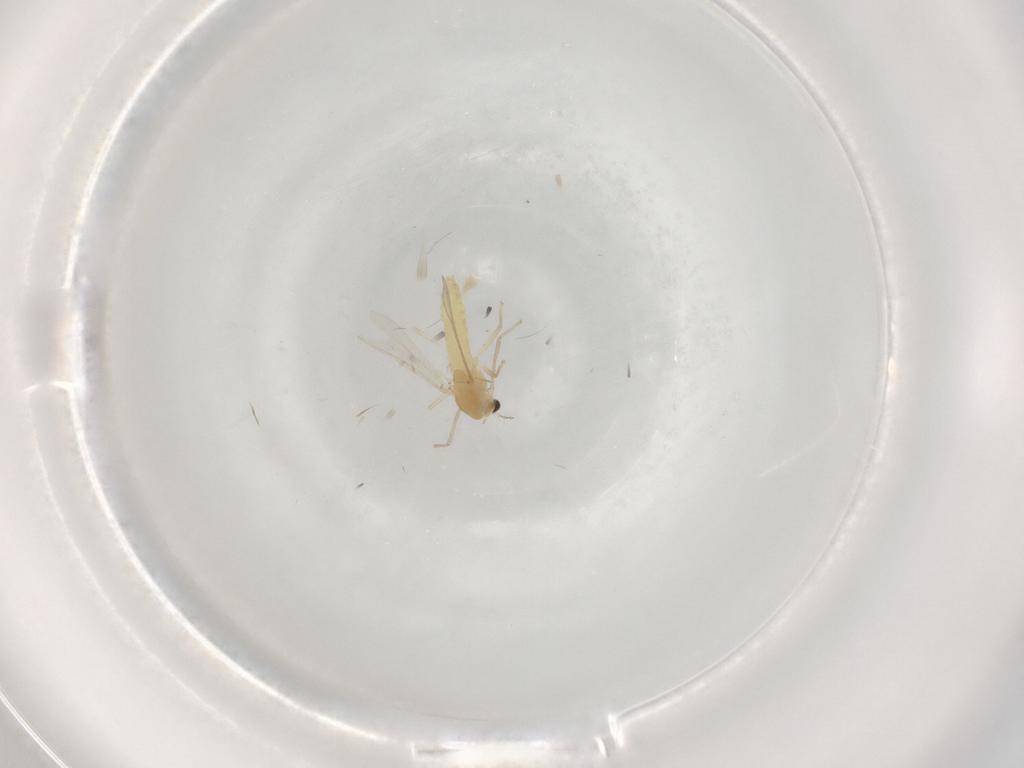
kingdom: Animalia
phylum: Arthropoda
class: Insecta
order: Diptera
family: Chironomidae
